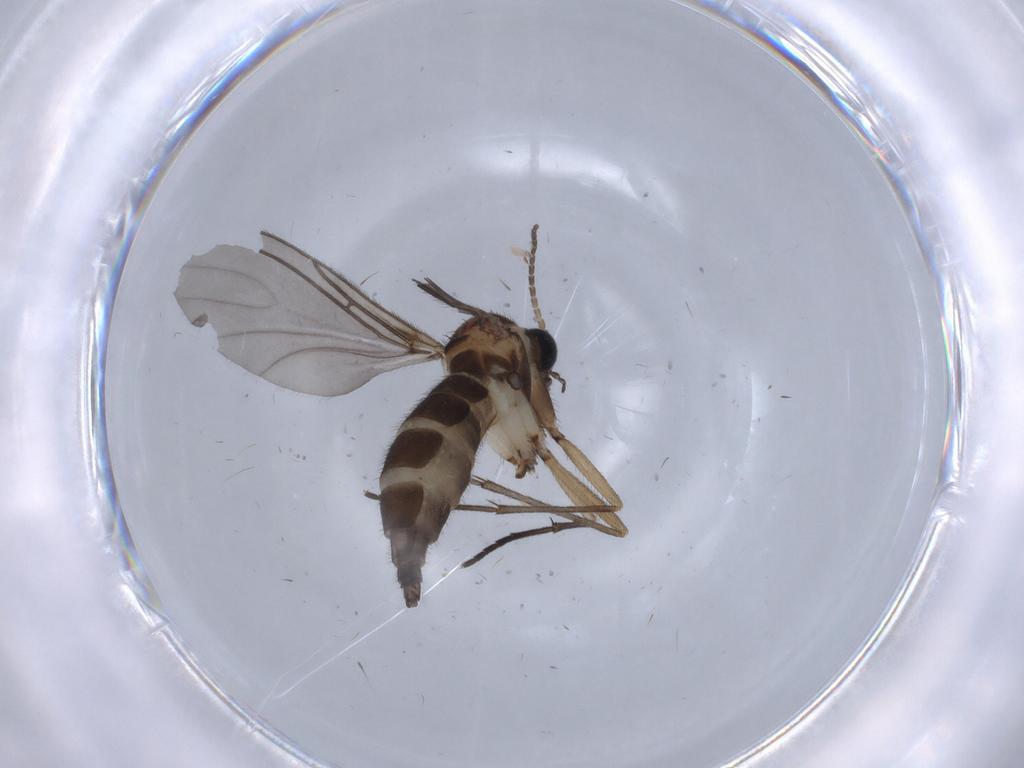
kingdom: Animalia
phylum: Arthropoda
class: Insecta
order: Diptera
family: Sciaridae
